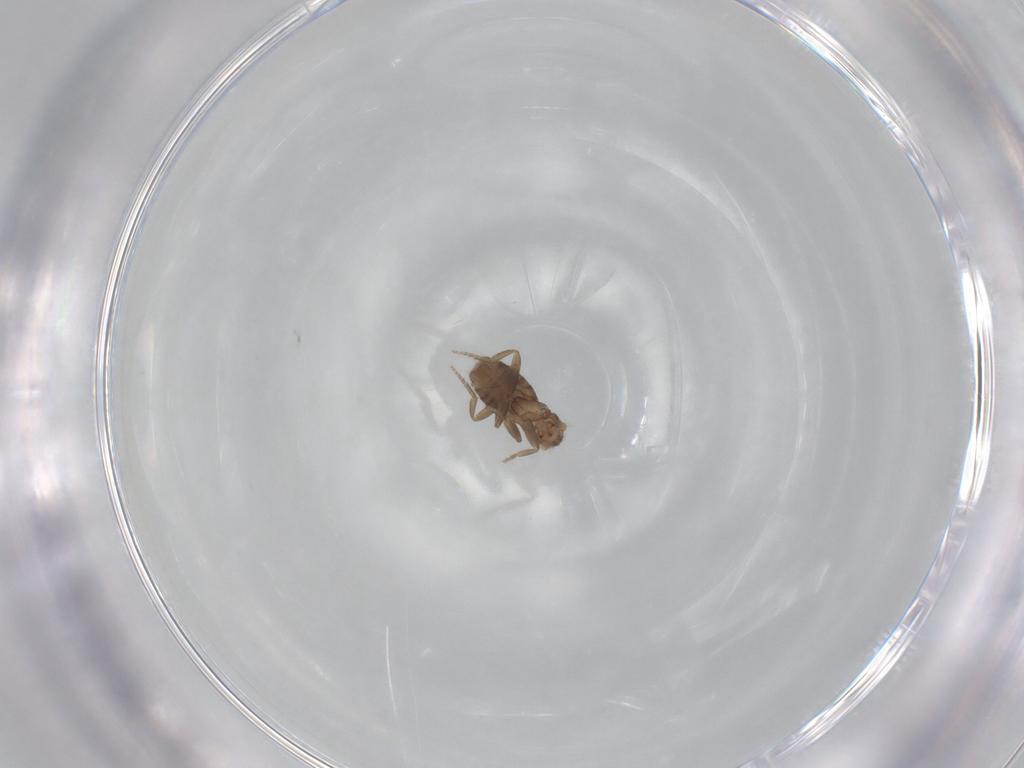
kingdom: Animalia
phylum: Arthropoda
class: Insecta
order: Diptera
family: Phoridae
